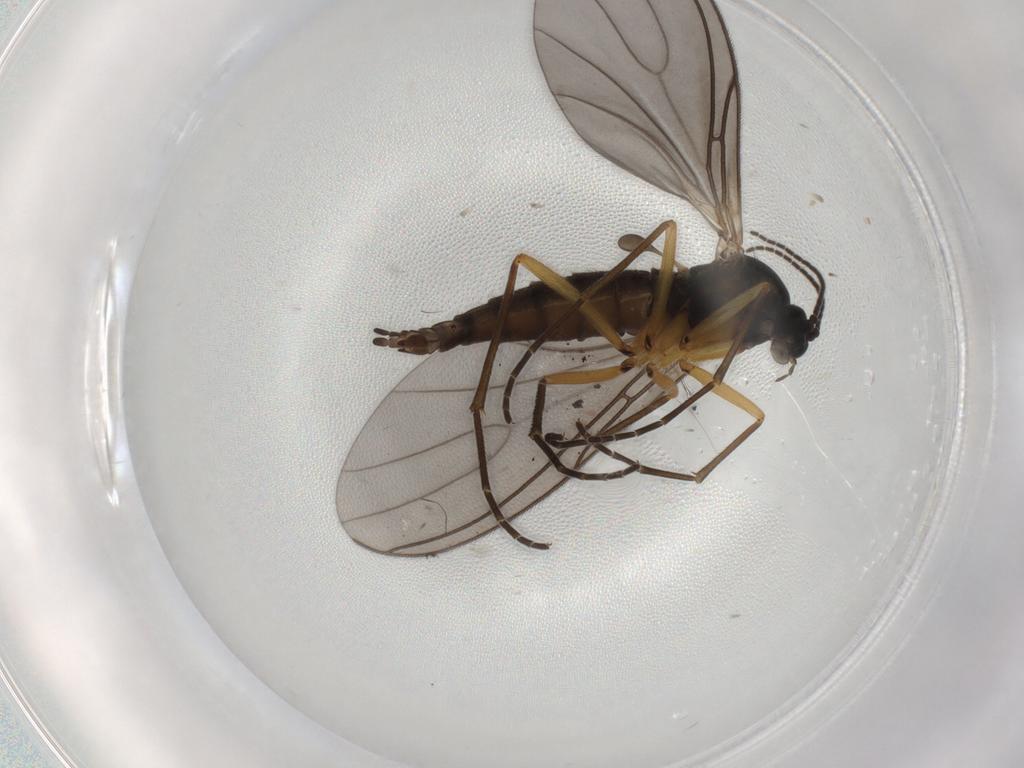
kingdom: Animalia
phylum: Arthropoda
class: Insecta
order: Diptera
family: Sciaridae
